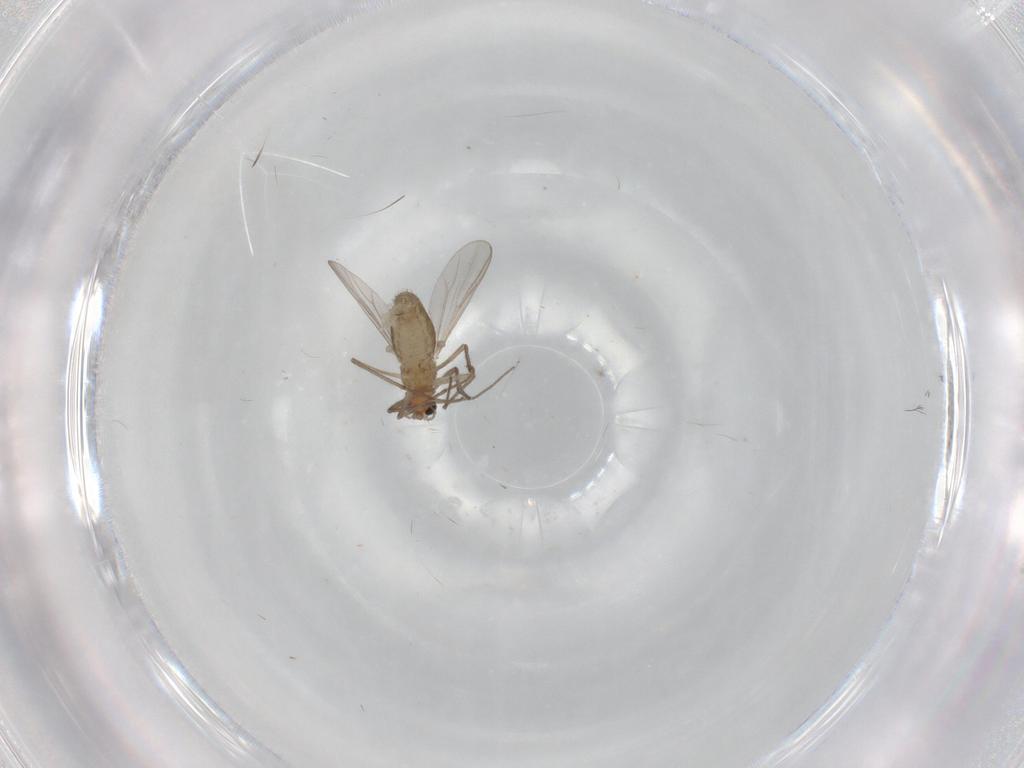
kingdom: Animalia
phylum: Arthropoda
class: Insecta
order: Diptera
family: Chironomidae
